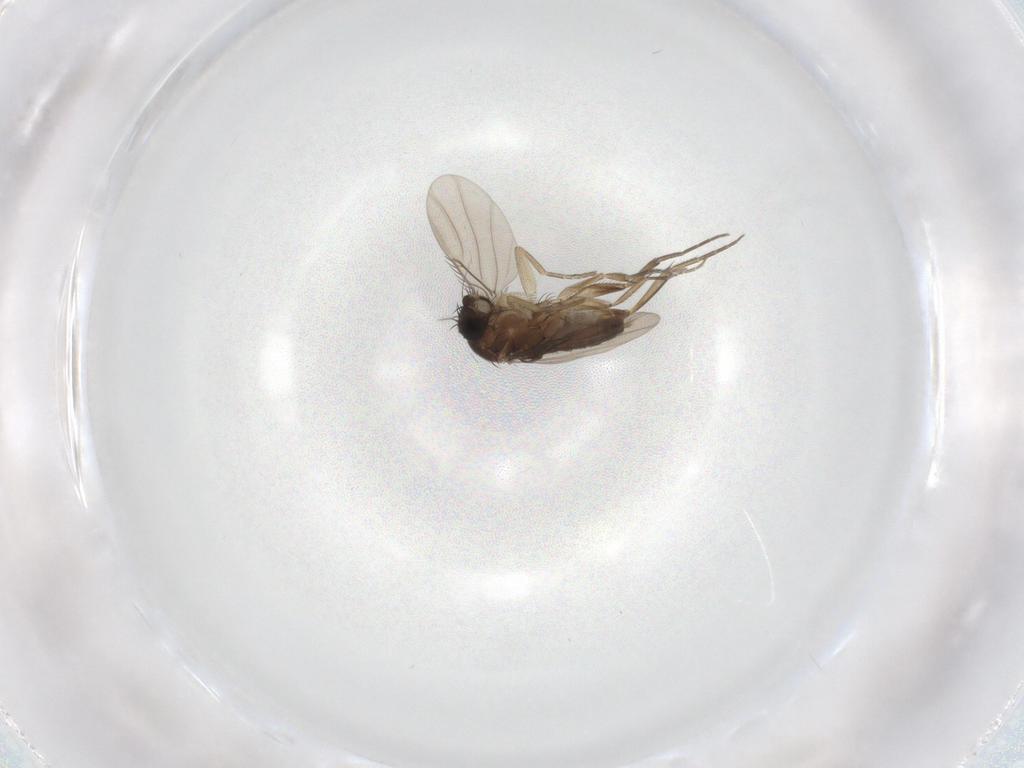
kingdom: Animalia
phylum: Arthropoda
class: Insecta
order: Diptera
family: Phoridae
